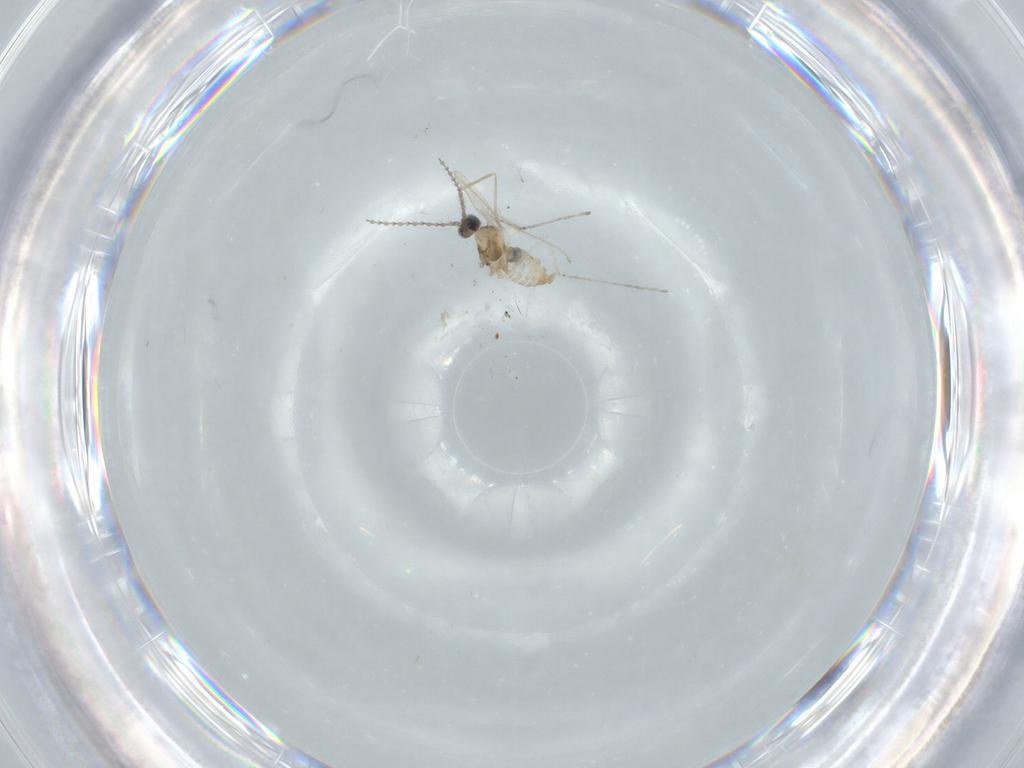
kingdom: Animalia
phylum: Arthropoda
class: Insecta
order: Diptera
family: Cecidomyiidae
